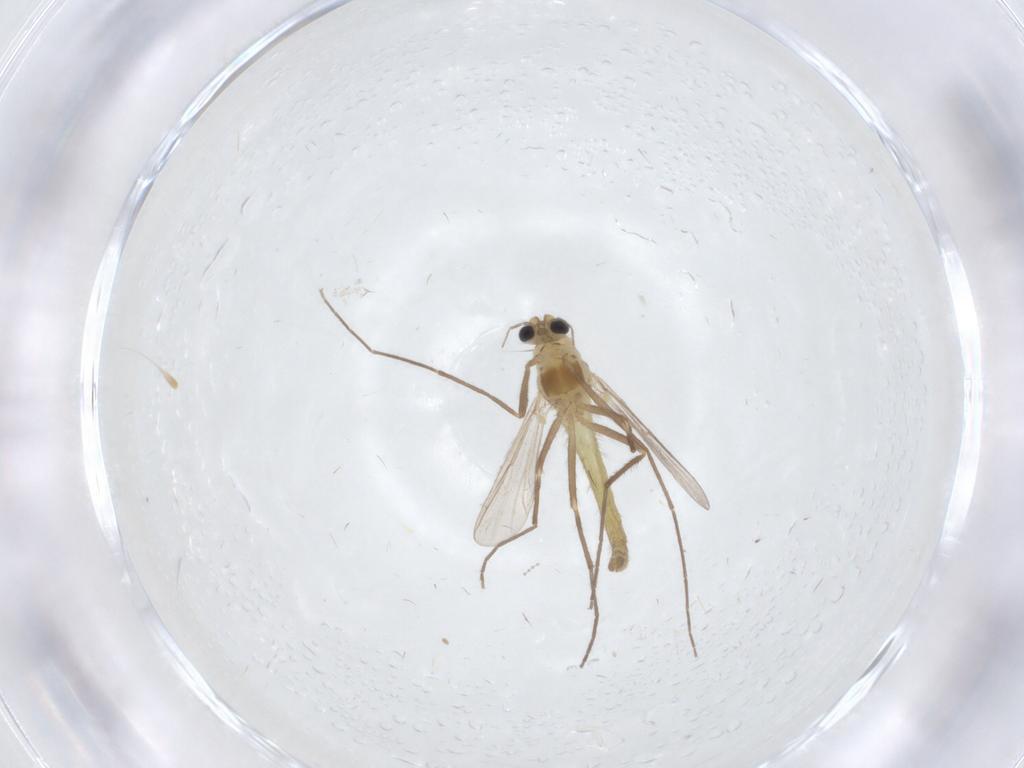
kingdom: Animalia
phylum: Arthropoda
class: Insecta
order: Diptera
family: Chironomidae
